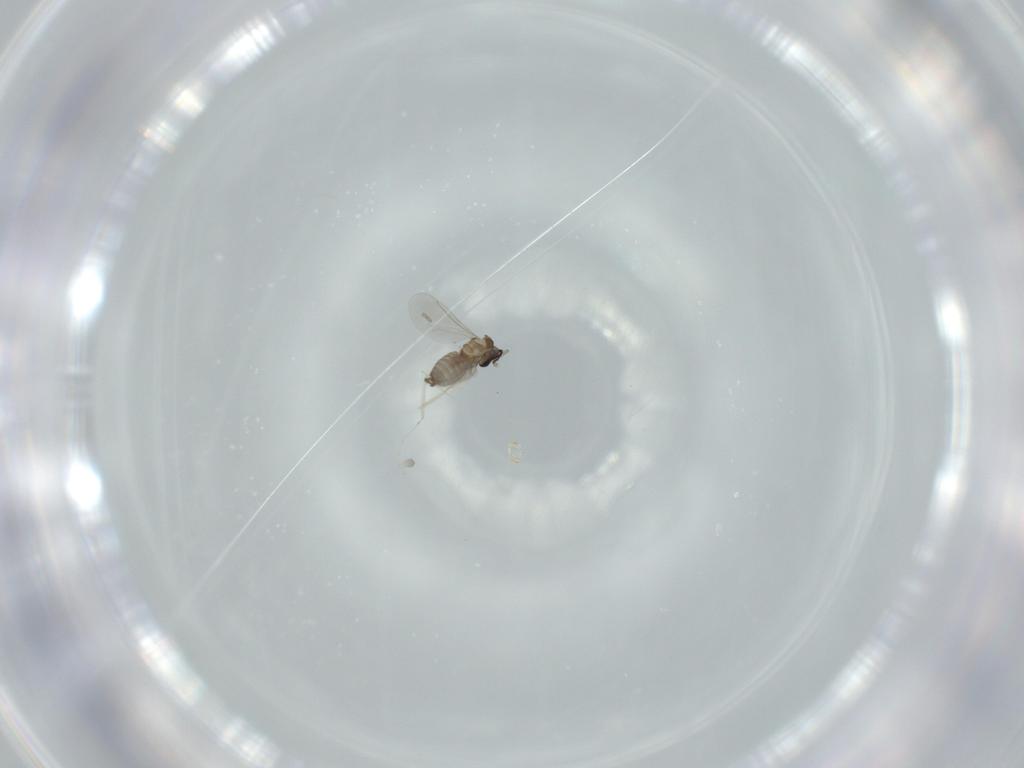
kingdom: Animalia
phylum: Arthropoda
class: Insecta
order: Diptera
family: Cecidomyiidae
